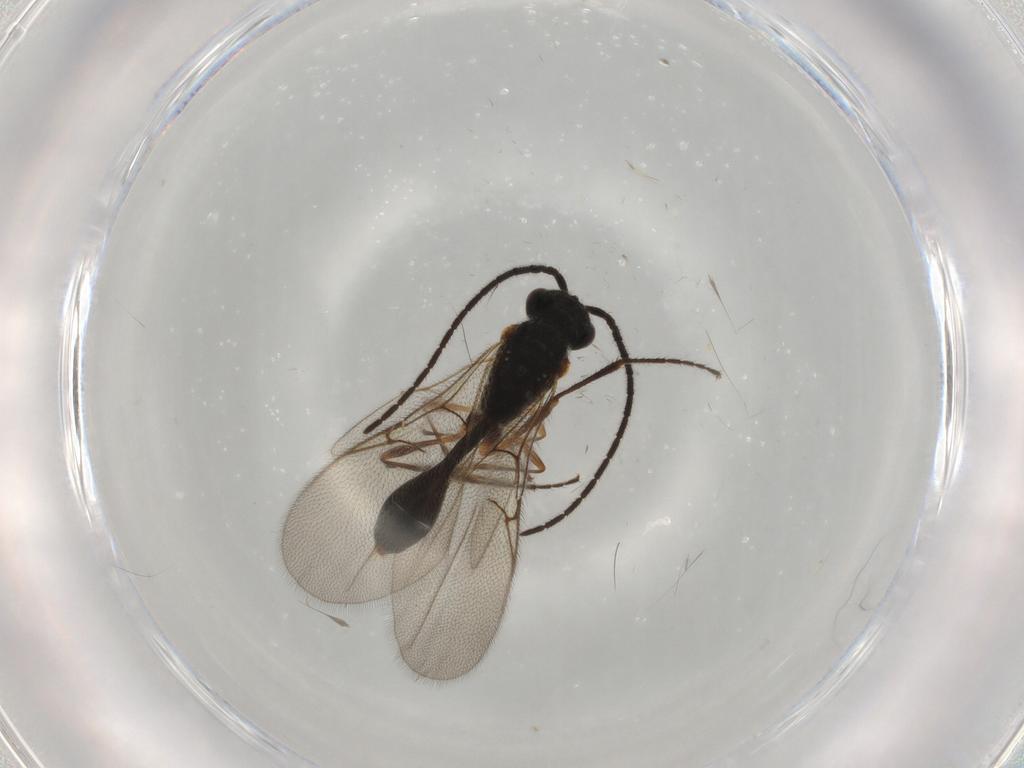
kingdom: Animalia
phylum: Arthropoda
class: Insecta
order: Hymenoptera
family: Diapriidae
